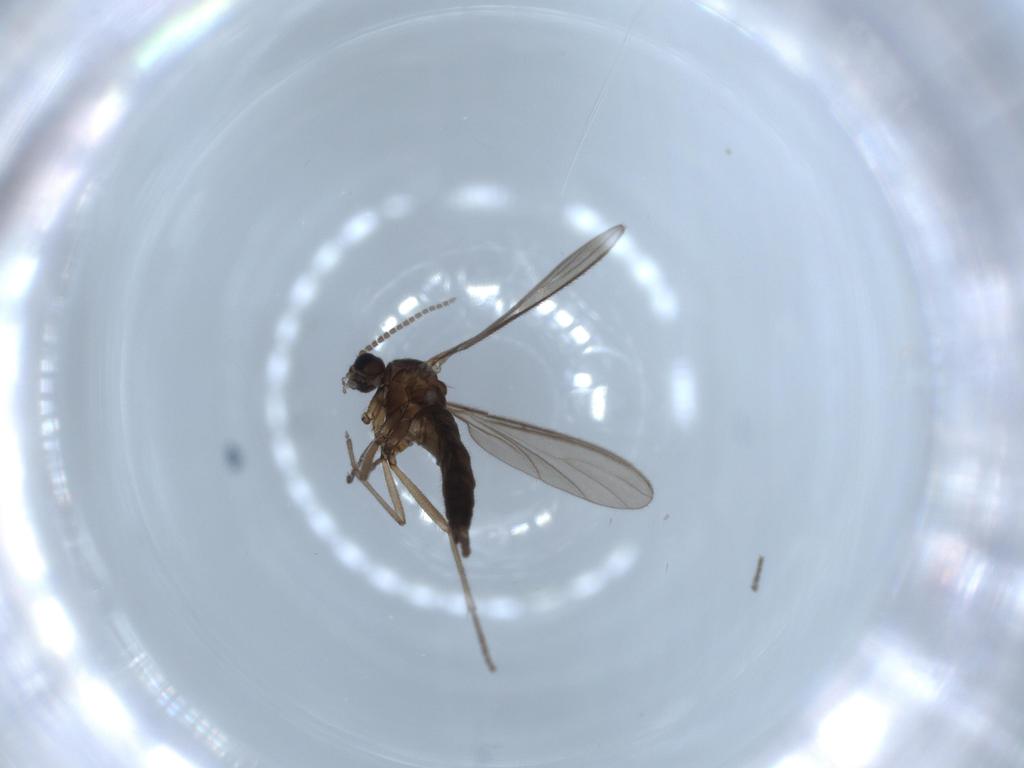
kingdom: Animalia
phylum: Arthropoda
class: Insecta
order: Diptera
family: Sciaridae
